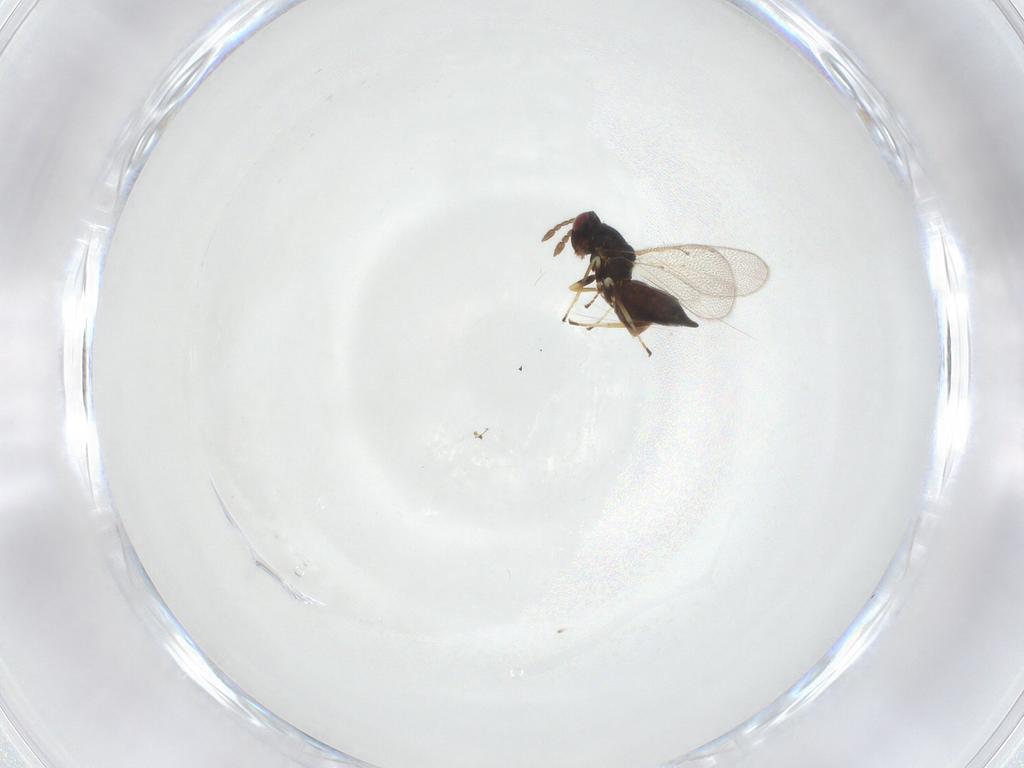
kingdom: Animalia
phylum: Arthropoda
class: Insecta
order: Hymenoptera
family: Eulophidae
